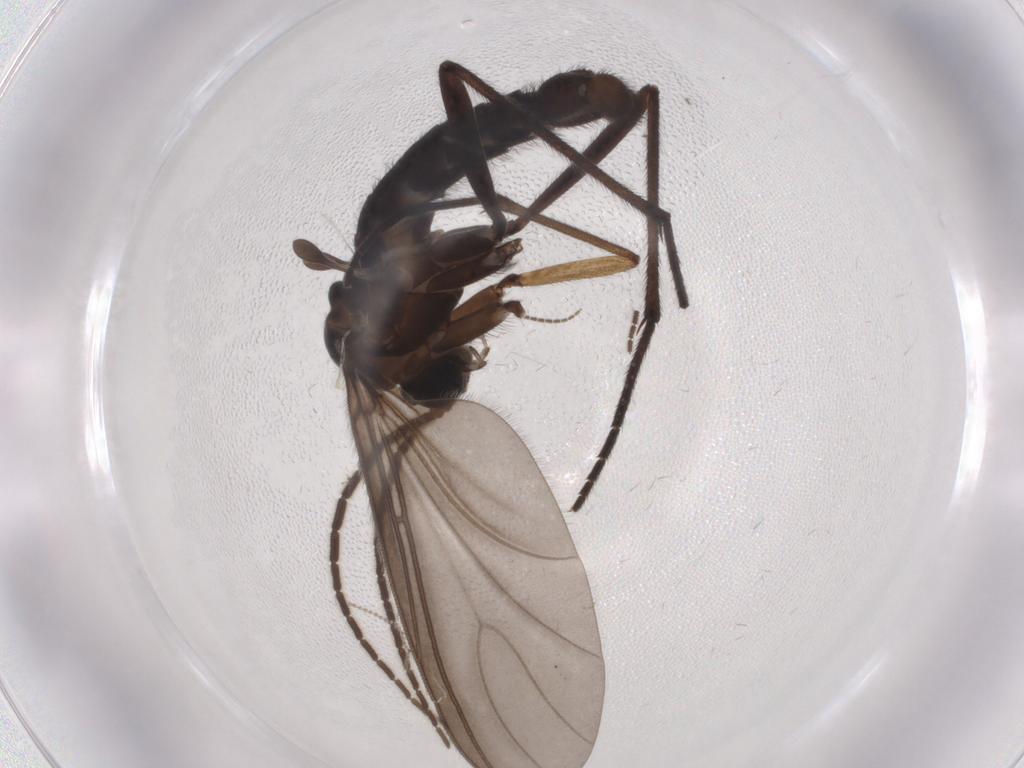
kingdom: Animalia
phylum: Arthropoda
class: Insecta
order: Diptera
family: Sciaridae
